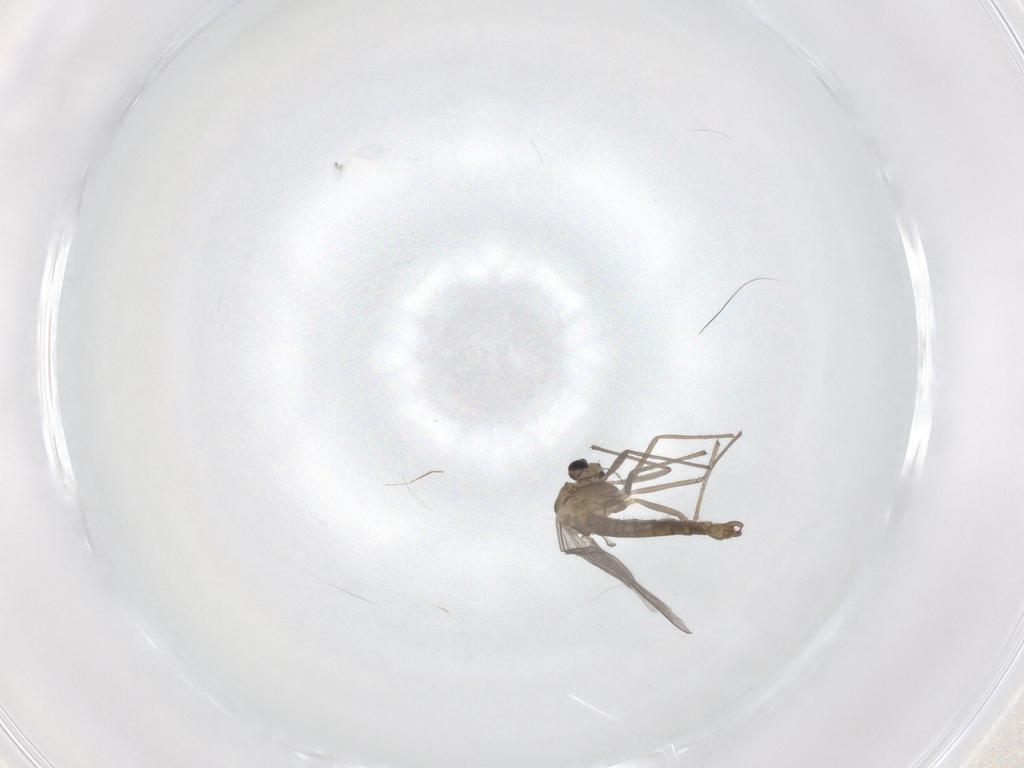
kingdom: Animalia
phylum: Arthropoda
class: Insecta
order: Diptera
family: Chironomidae
